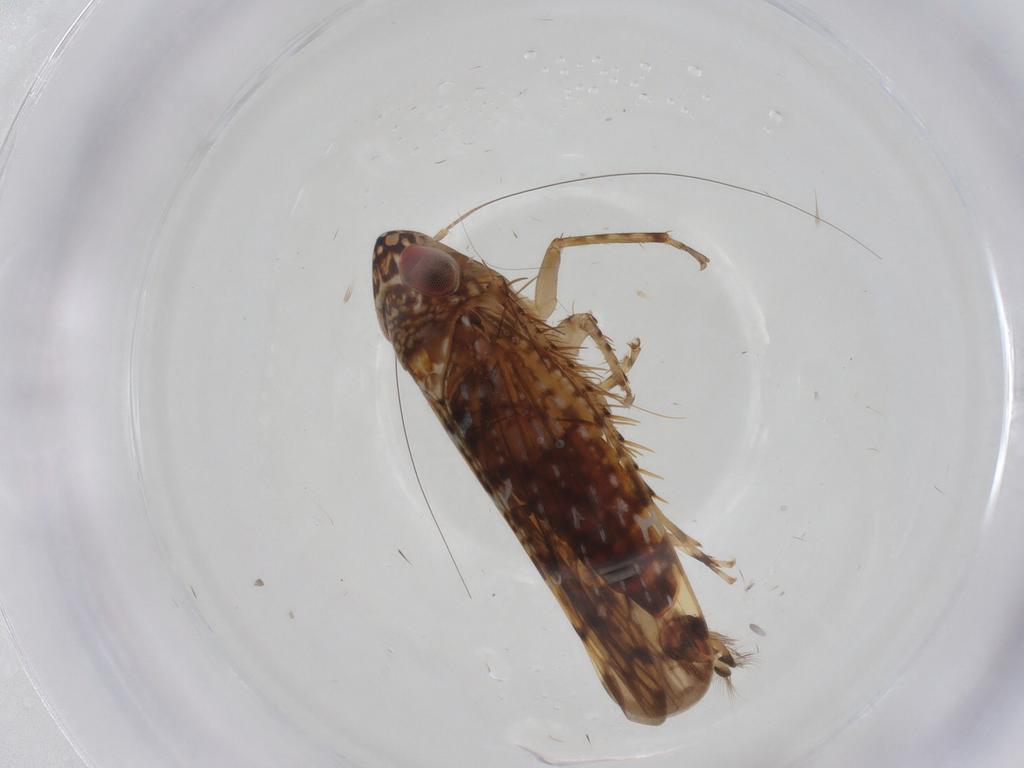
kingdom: Animalia
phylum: Arthropoda
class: Insecta
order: Hemiptera
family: Cicadellidae
